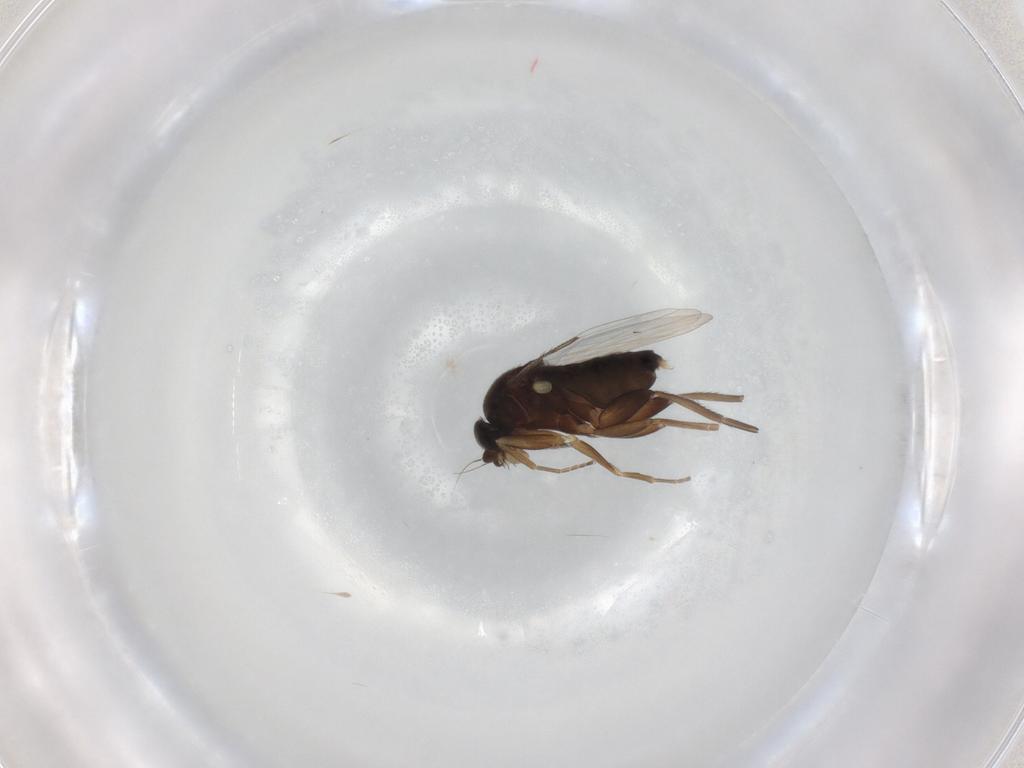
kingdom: Animalia
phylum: Arthropoda
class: Insecta
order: Diptera
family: Phoridae
